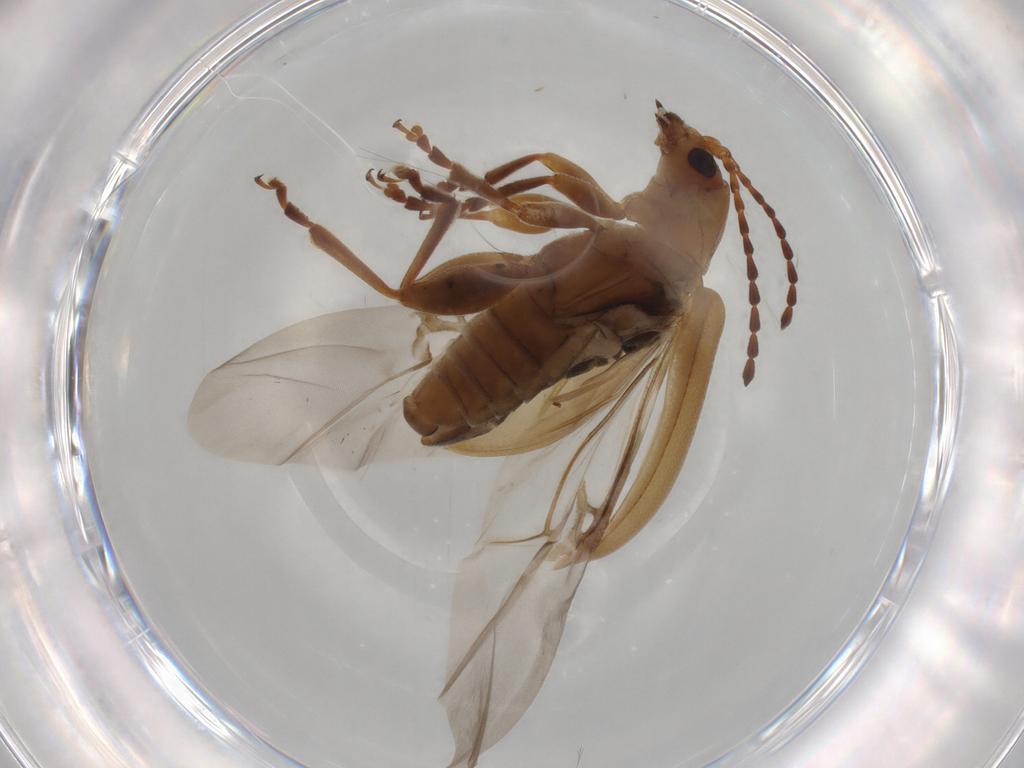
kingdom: Animalia
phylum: Arthropoda
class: Insecta
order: Coleoptera
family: Chrysomelidae
